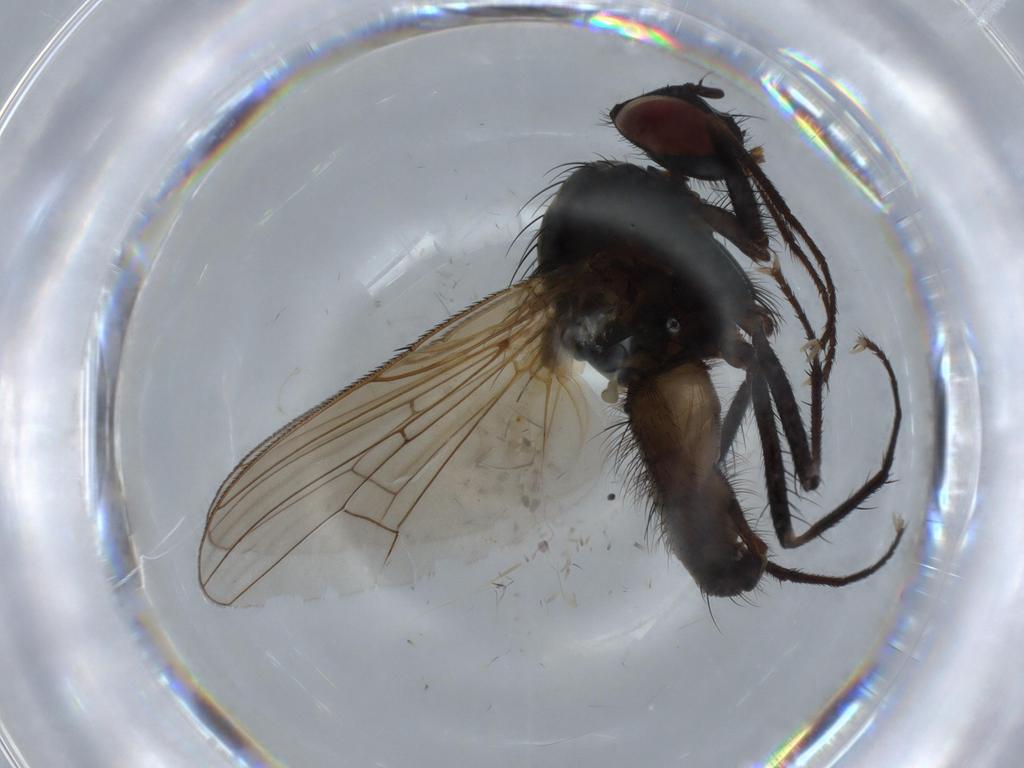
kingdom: Animalia
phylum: Arthropoda
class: Insecta
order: Diptera
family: Anthomyiidae
